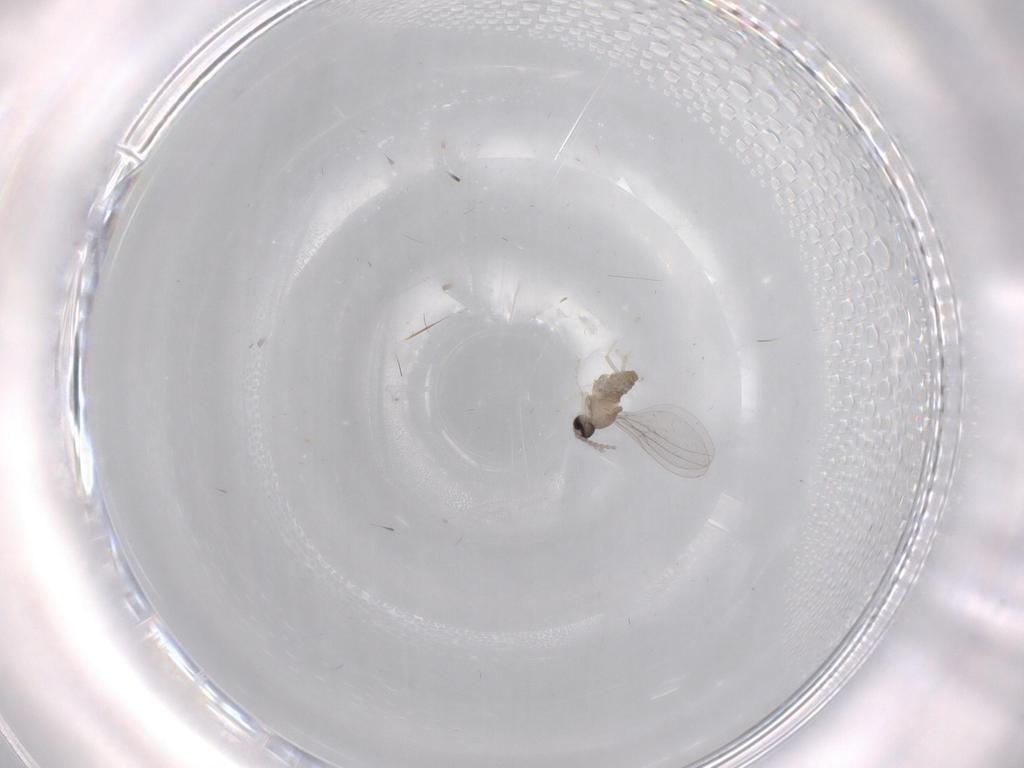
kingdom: Animalia
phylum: Arthropoda
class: Insecta
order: Diptera
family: Cecidomyiidae
